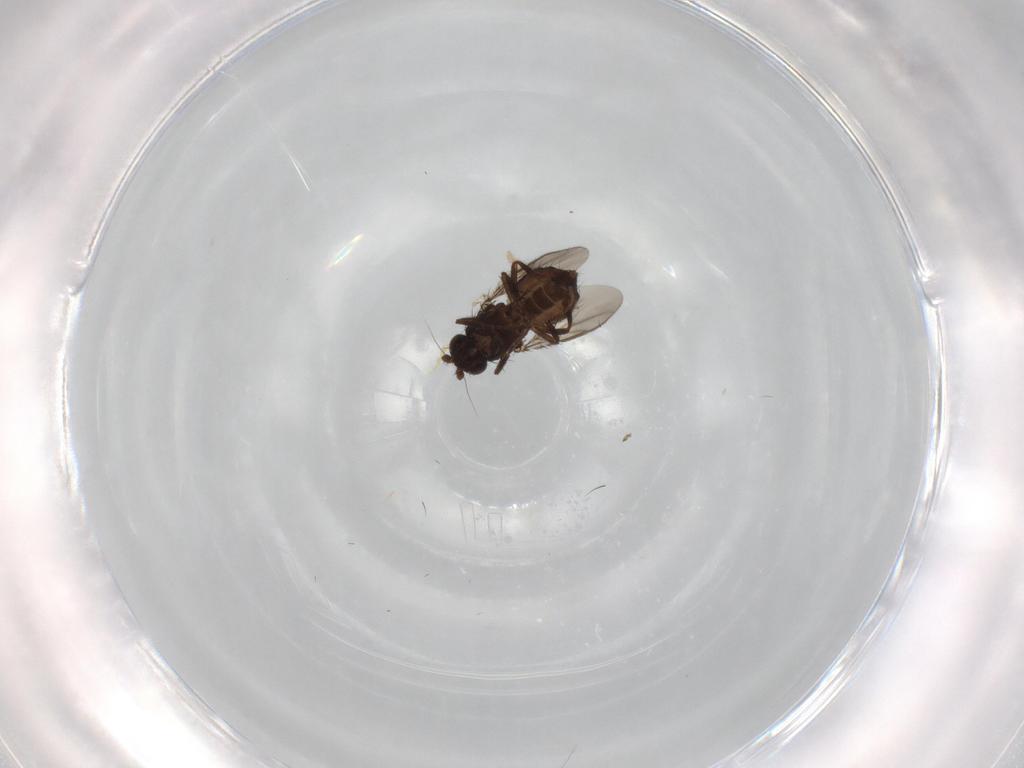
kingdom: Animalia
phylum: Arthropoda
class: Insecta
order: Diptera
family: Sphaeroceridae
